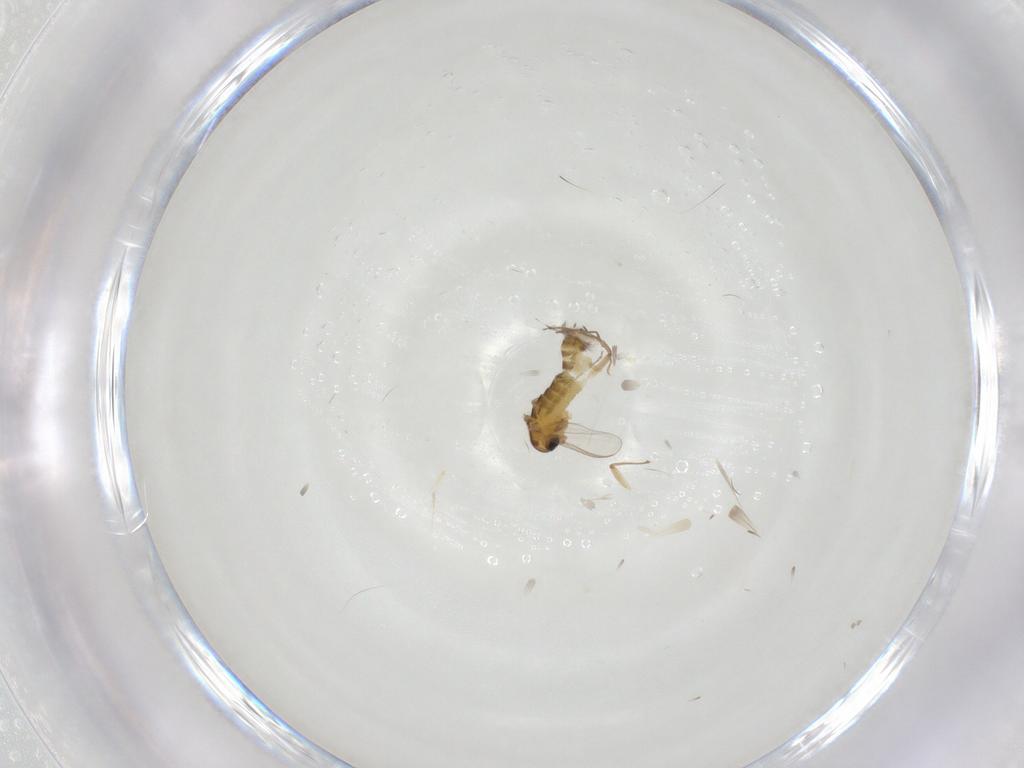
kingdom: Animalia
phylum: Arthropoda
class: Insecta
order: Diptera
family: Chironomidae
